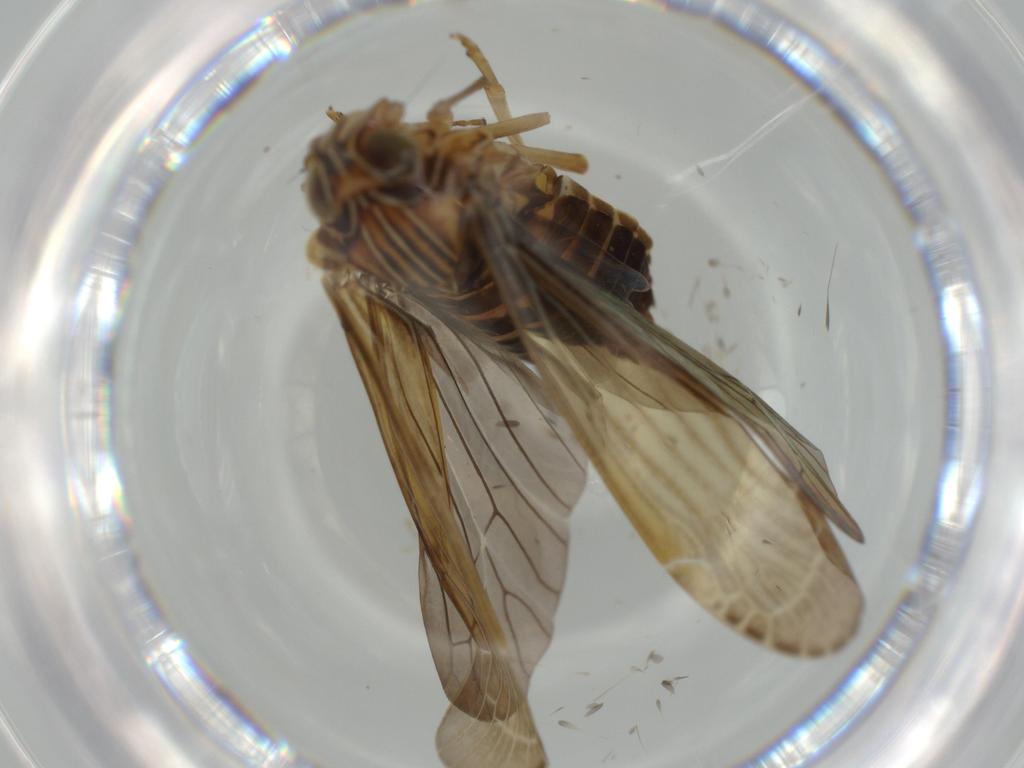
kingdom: Animalia
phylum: Arthropoda
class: Insecta
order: Hemiptera
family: Achilidae
